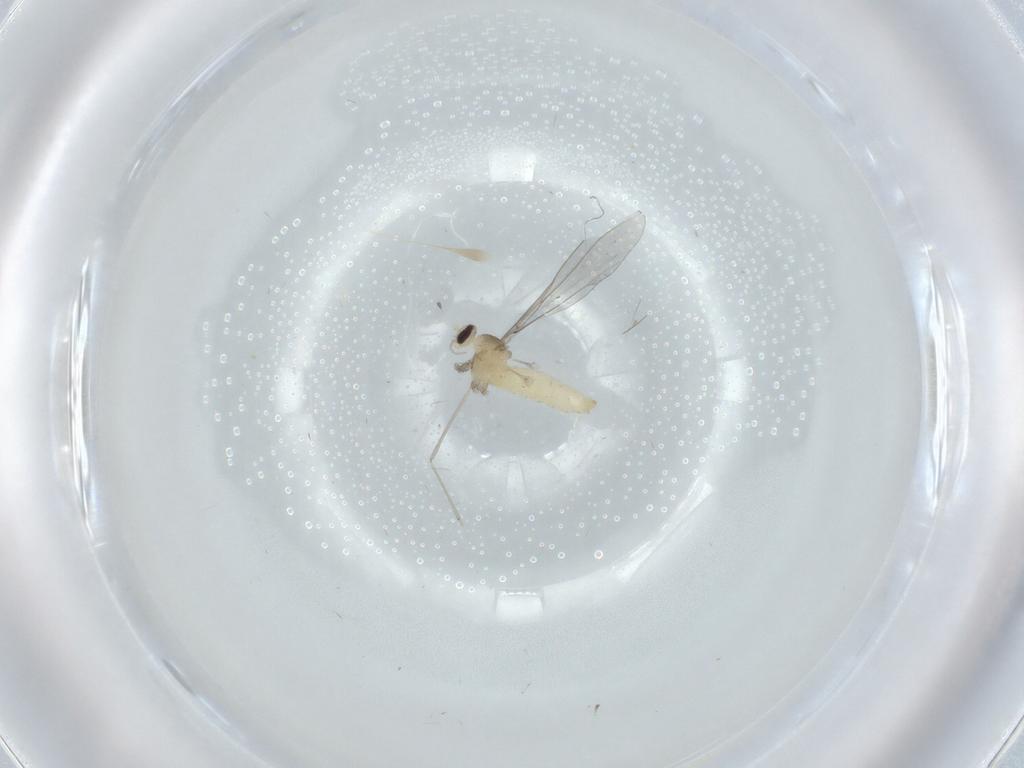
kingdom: Animalia
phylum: Arthropoda
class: Insecta
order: Diptera
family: Cecidomyiidae
